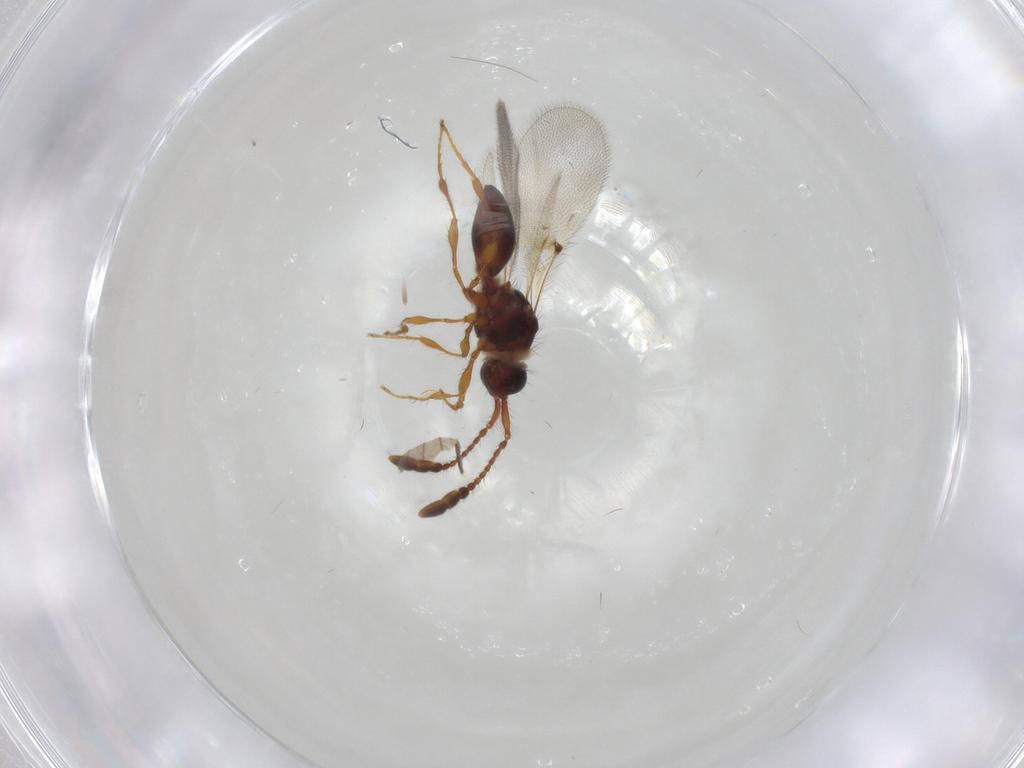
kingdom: Animalia
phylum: Arthropoda
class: Insecta
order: Hymenoptera
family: Diapriidae
